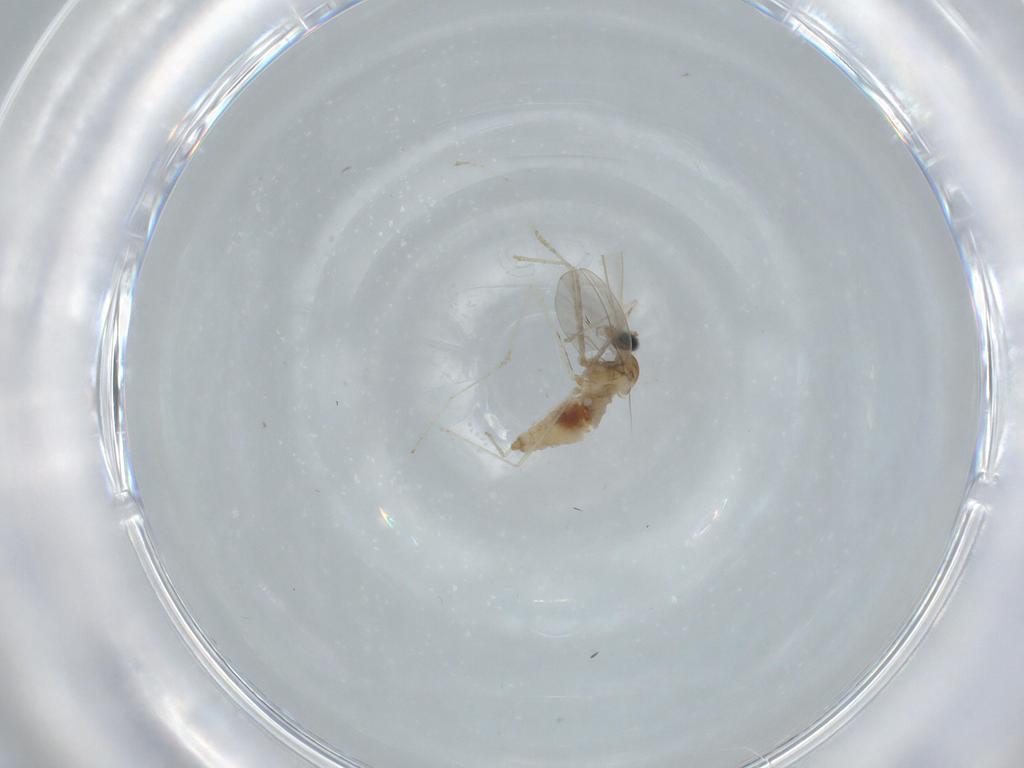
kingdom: Animalia
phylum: Arthropoda
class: Insecta
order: Diptera
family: Cecidomyiidae
